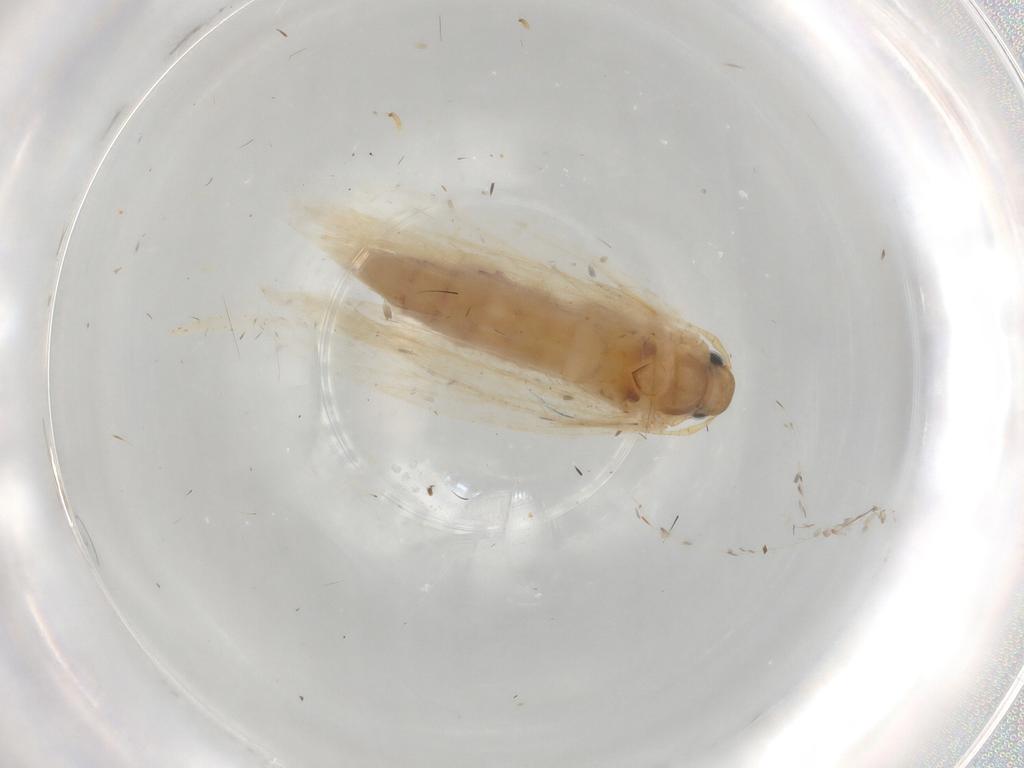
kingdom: Animalia
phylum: Arthropoda
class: Insecta
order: Lepidoptera
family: Gelechiidae
